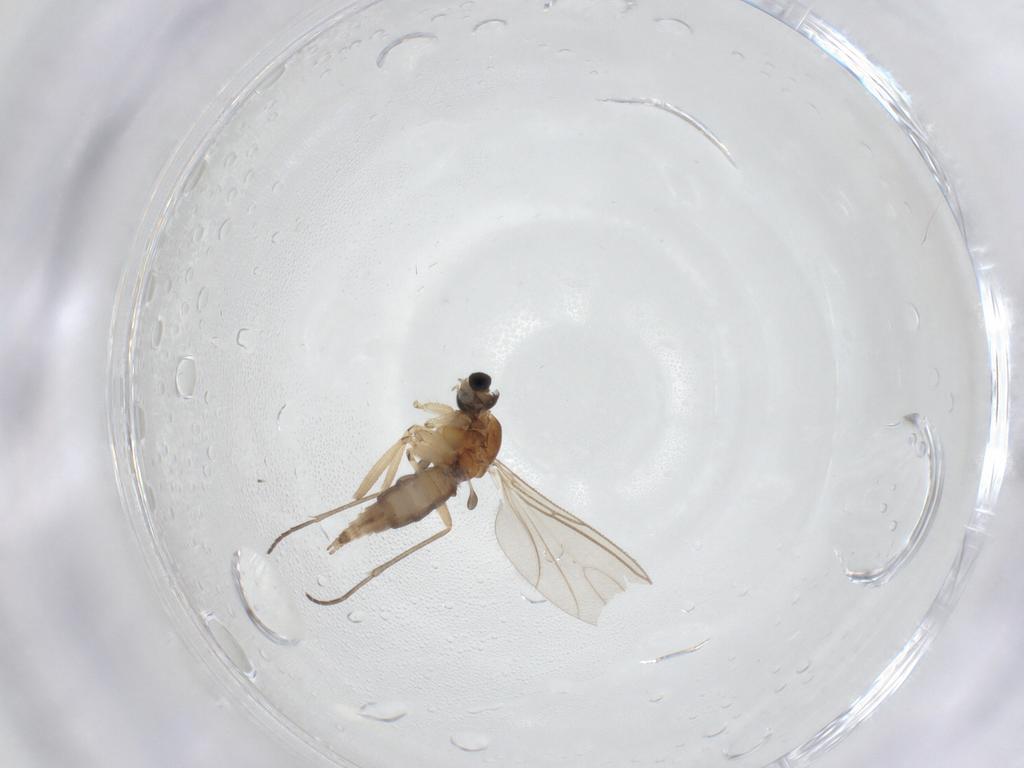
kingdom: Animalia
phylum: Arthropoda
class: Insecta
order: Diptera
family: Sciaridae
